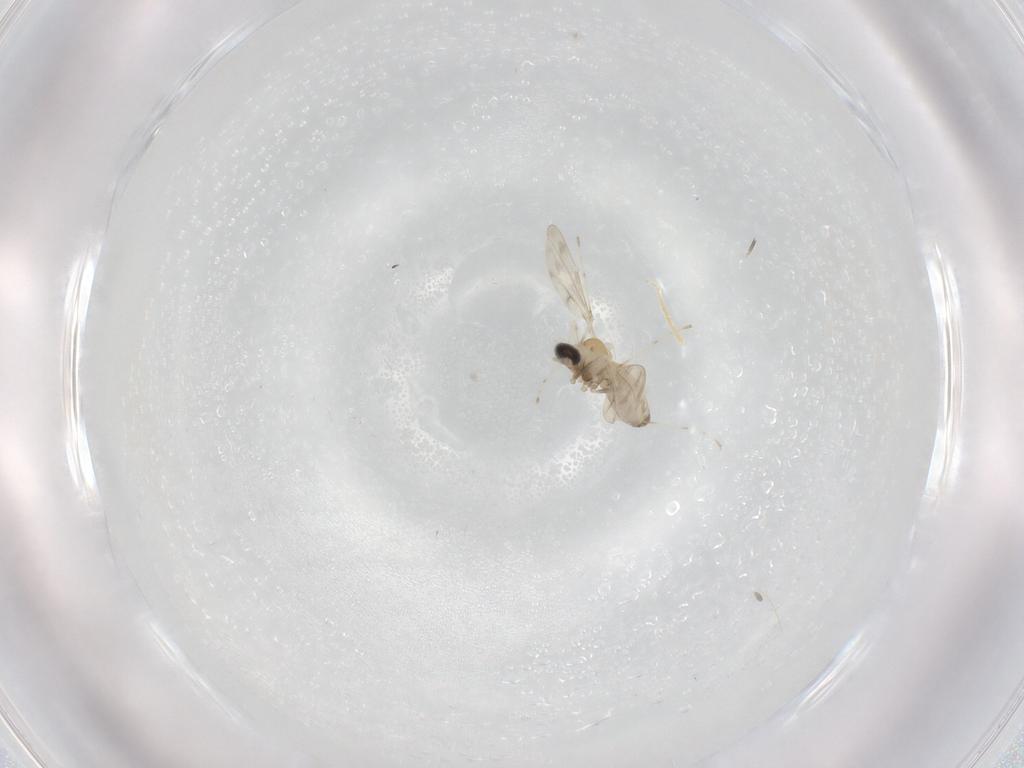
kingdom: Animalia
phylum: Arthropoda
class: Insecta
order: Diptera
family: Cecidomyiidae
